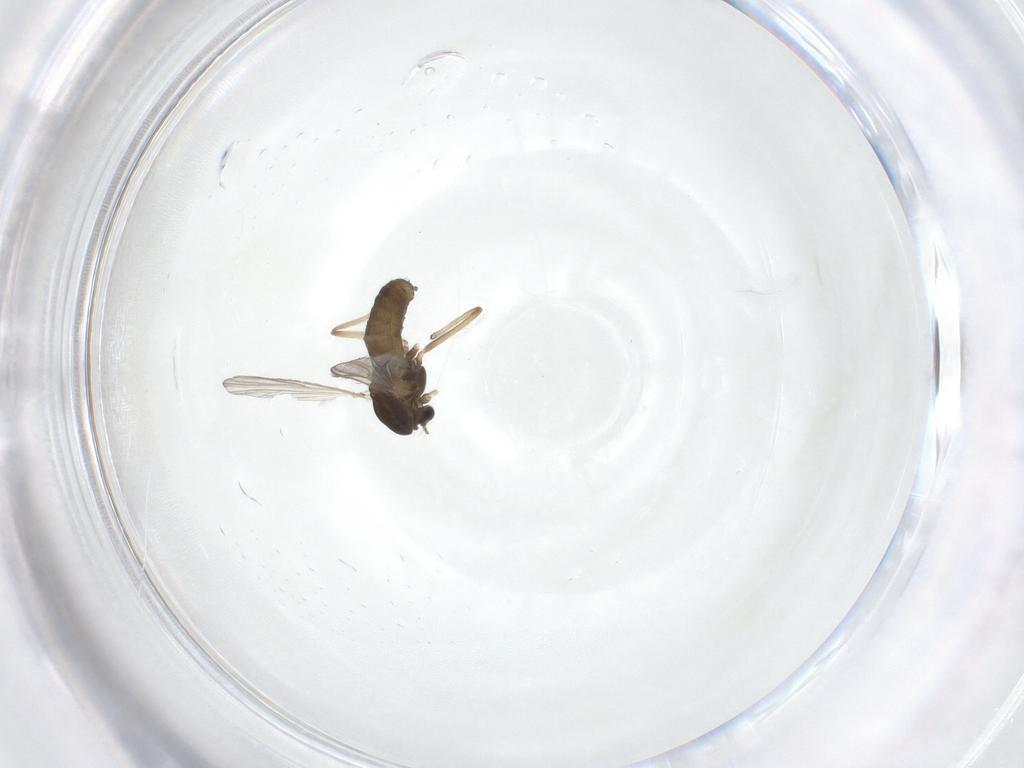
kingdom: Animalia
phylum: Arthropoda
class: Insecta
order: Diptera
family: Chironomidae
